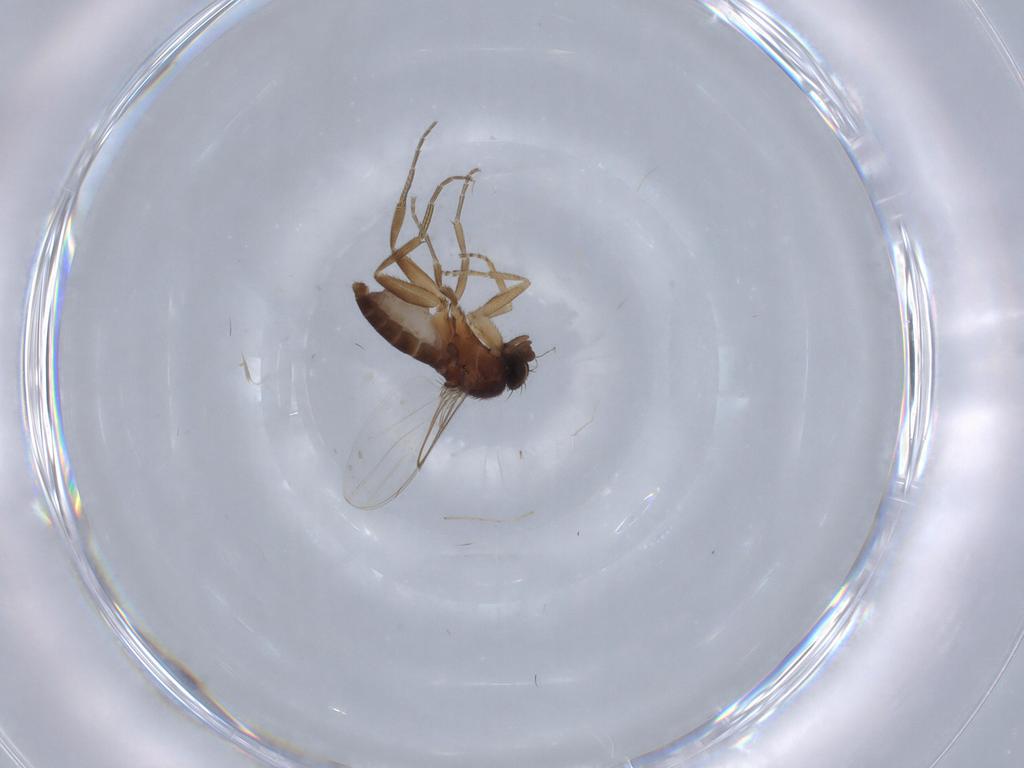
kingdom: Animalia
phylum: Arthropoda
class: Insecta
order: Diptera
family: Phoridae
